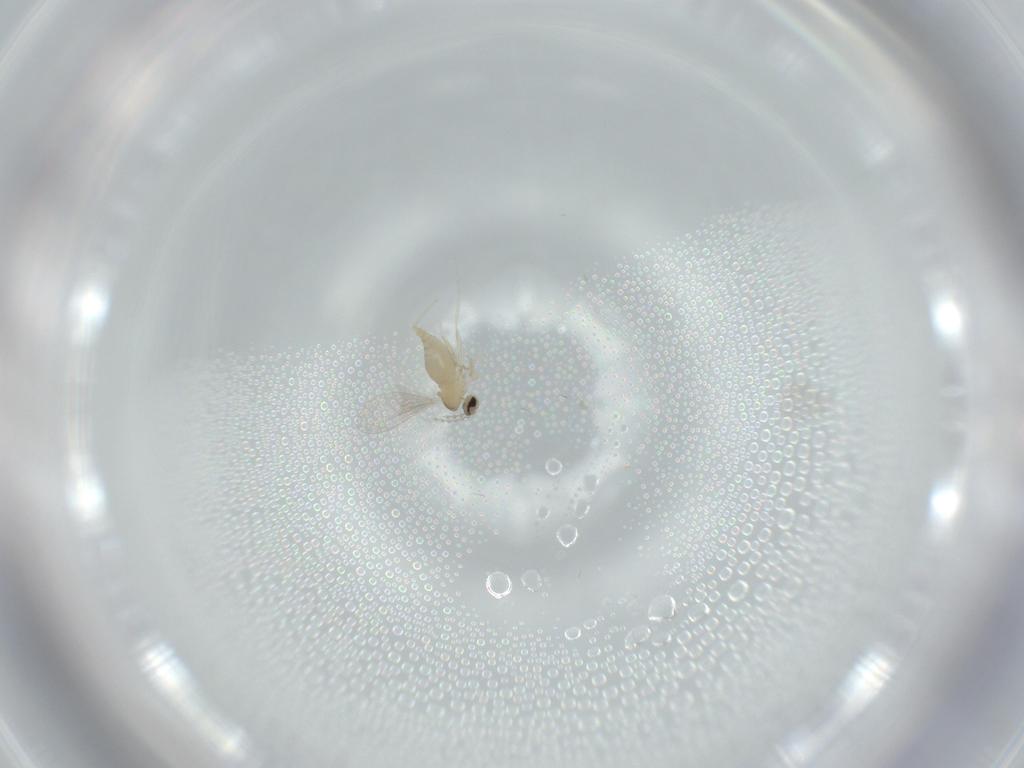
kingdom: Animalia
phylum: Arthropoda
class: Insecta
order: Diptera
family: Cecidomyiidae
